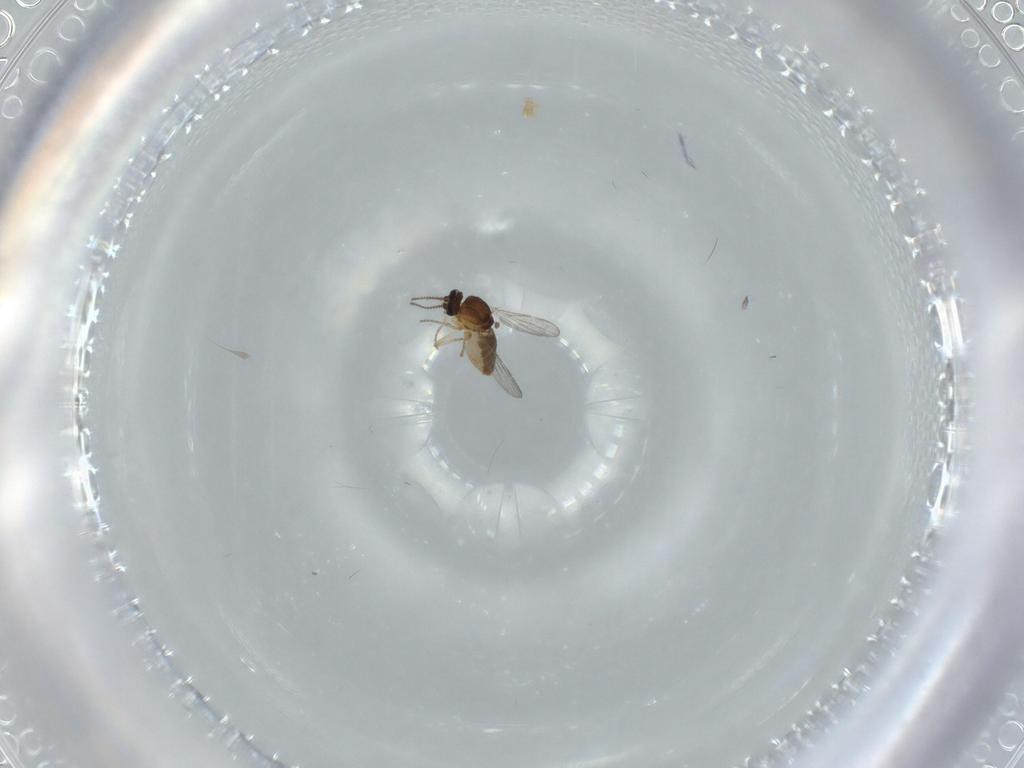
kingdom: Animalia
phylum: Arthropoda
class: Insecta
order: Diptera
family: Ceratopogonidae
